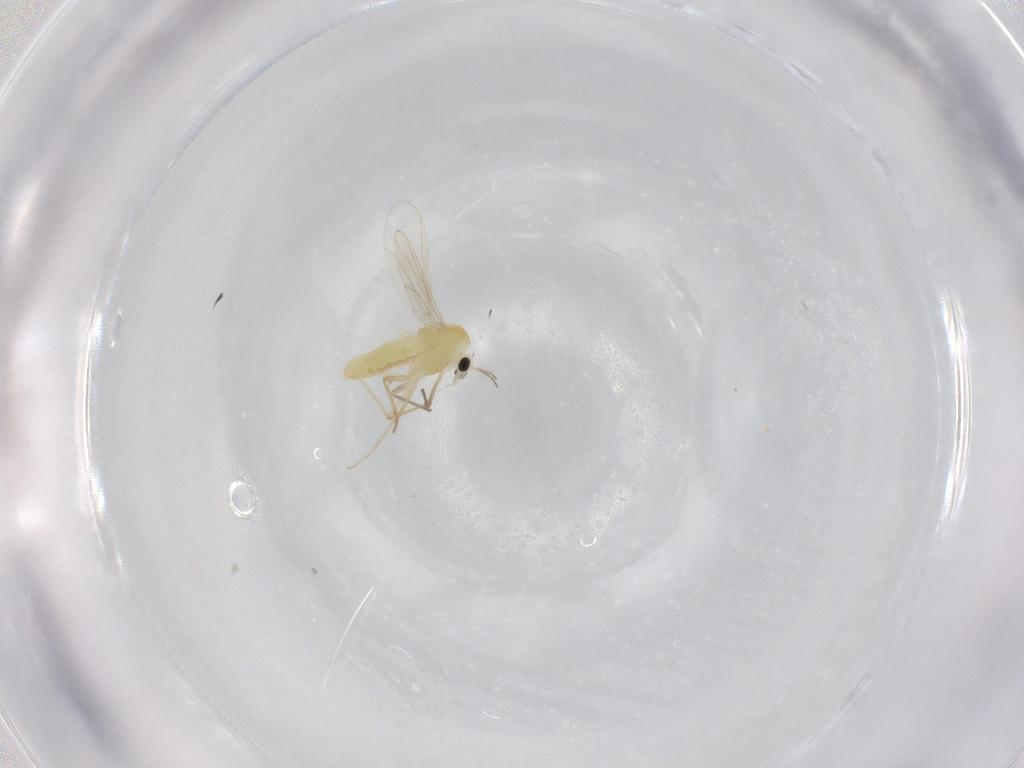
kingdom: Animalia
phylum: Arthropoda
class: Insecta
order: Diptera
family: Chironomidae
